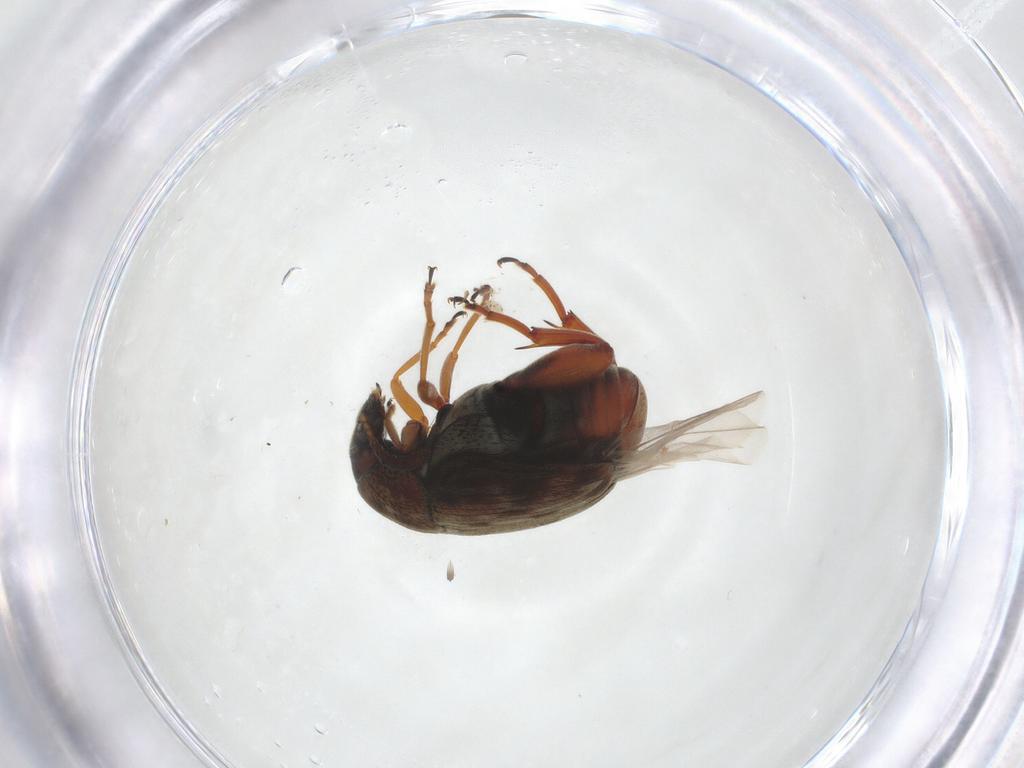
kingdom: Animalia
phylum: Arthropoda
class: Insecta
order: Coleoptera
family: Chrysomelidae
